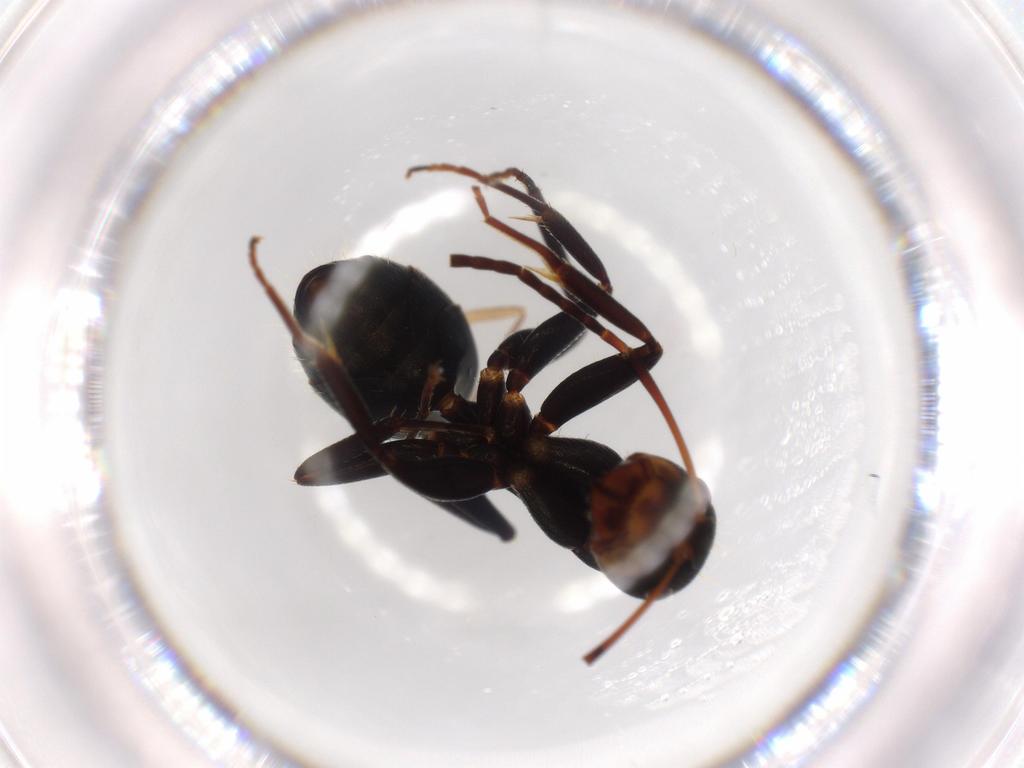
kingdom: Animalia
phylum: Arthropoda
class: Insecta
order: Hymenoptera
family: Formicidae
